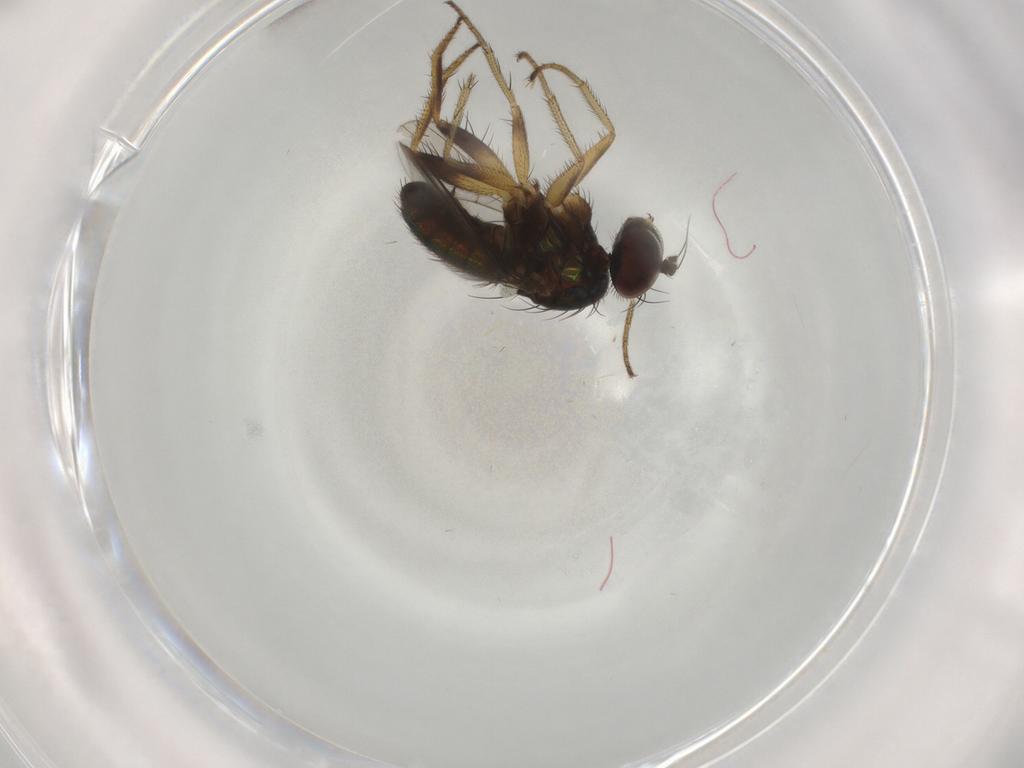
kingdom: Animalia
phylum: Arthropoda
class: Insecta
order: Diptera
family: Dolichopodidae
